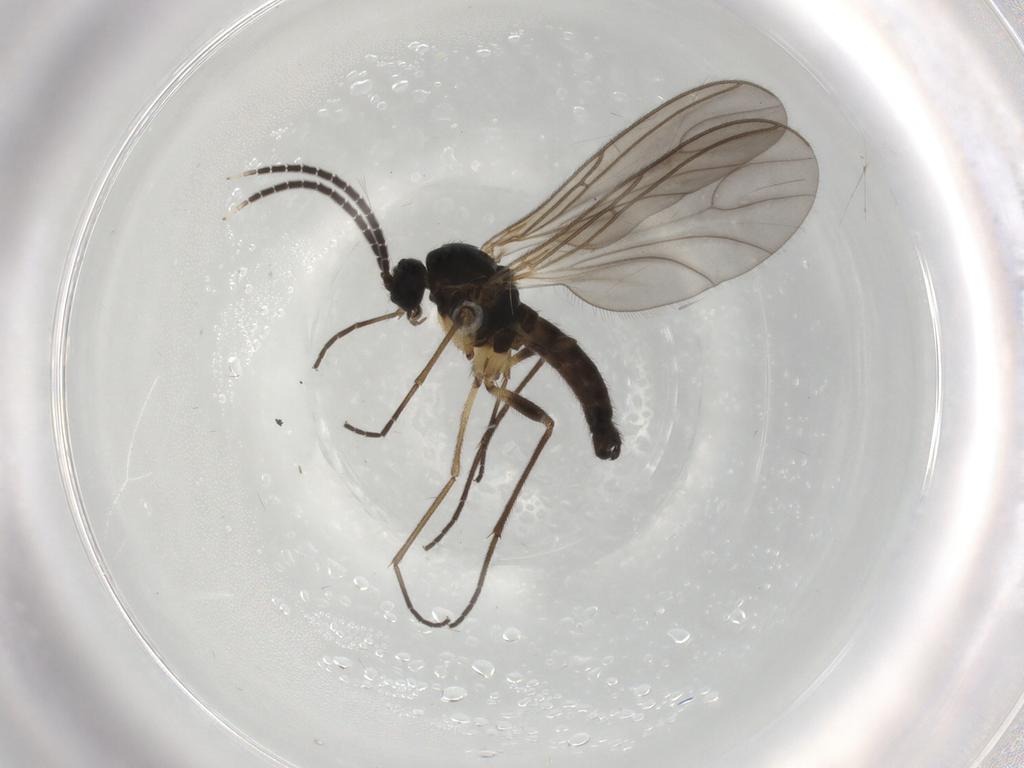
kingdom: Animalia
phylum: Arthropoda
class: Insecta
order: Diptera
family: Sciaridae
